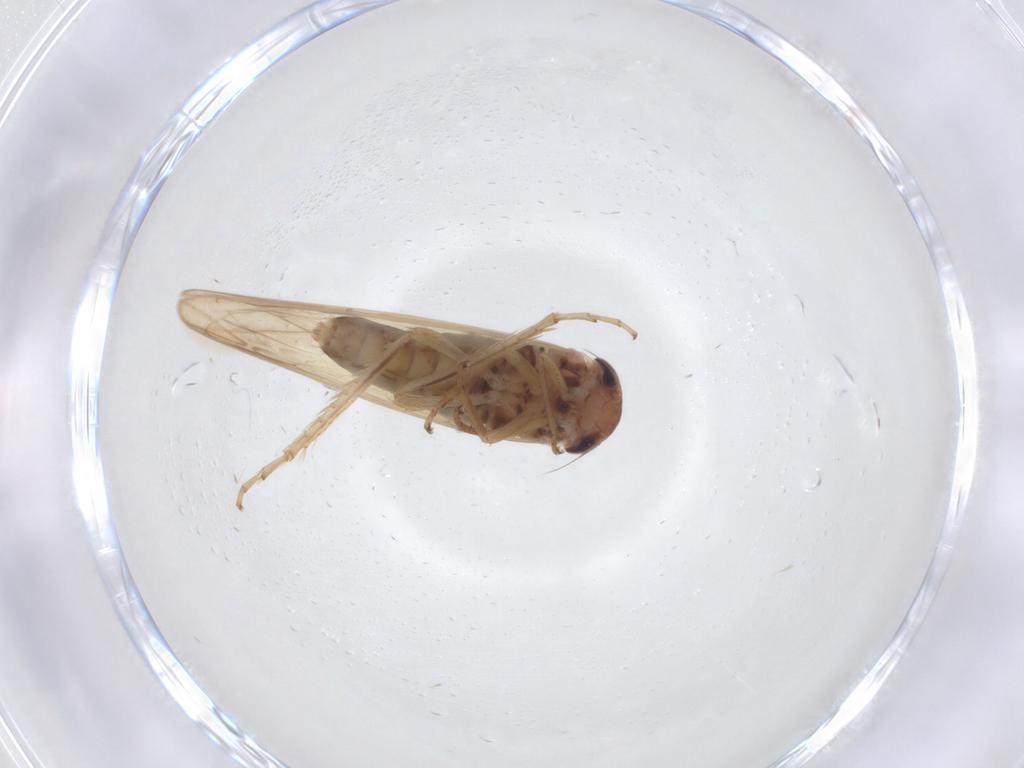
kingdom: Animalia
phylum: Arthropoda
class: Insecta
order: Hemiptera
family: Cicadellidae
